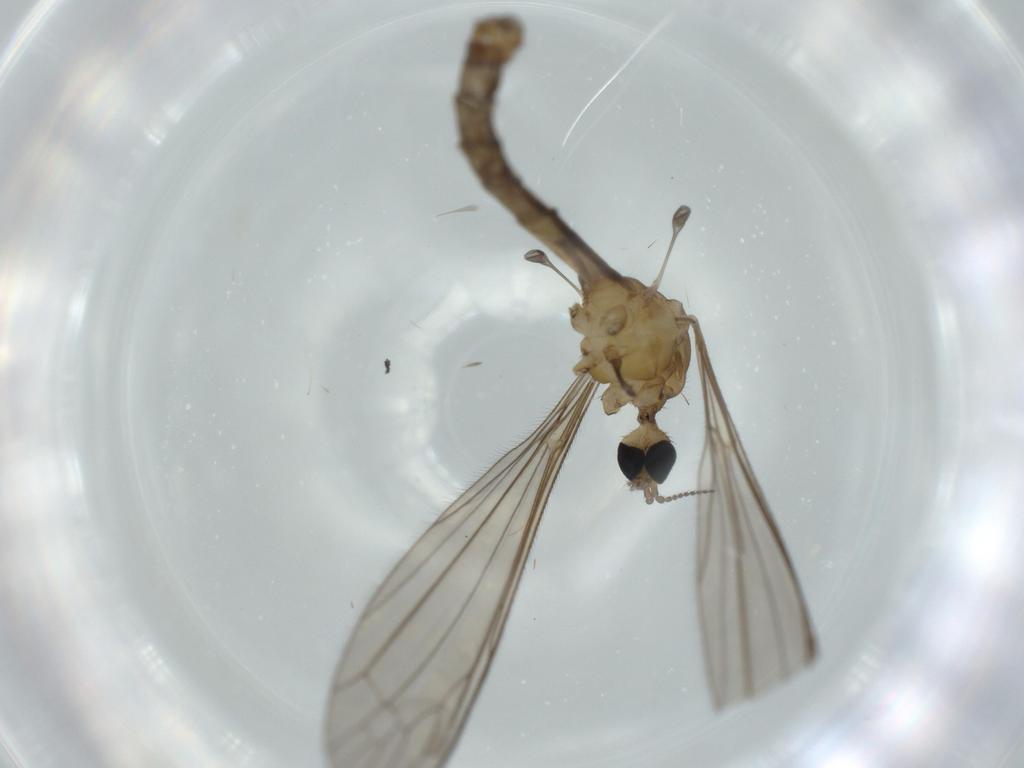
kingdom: Animalia
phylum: Arthropoda
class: Insecta
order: Diptera
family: Limoniidae
